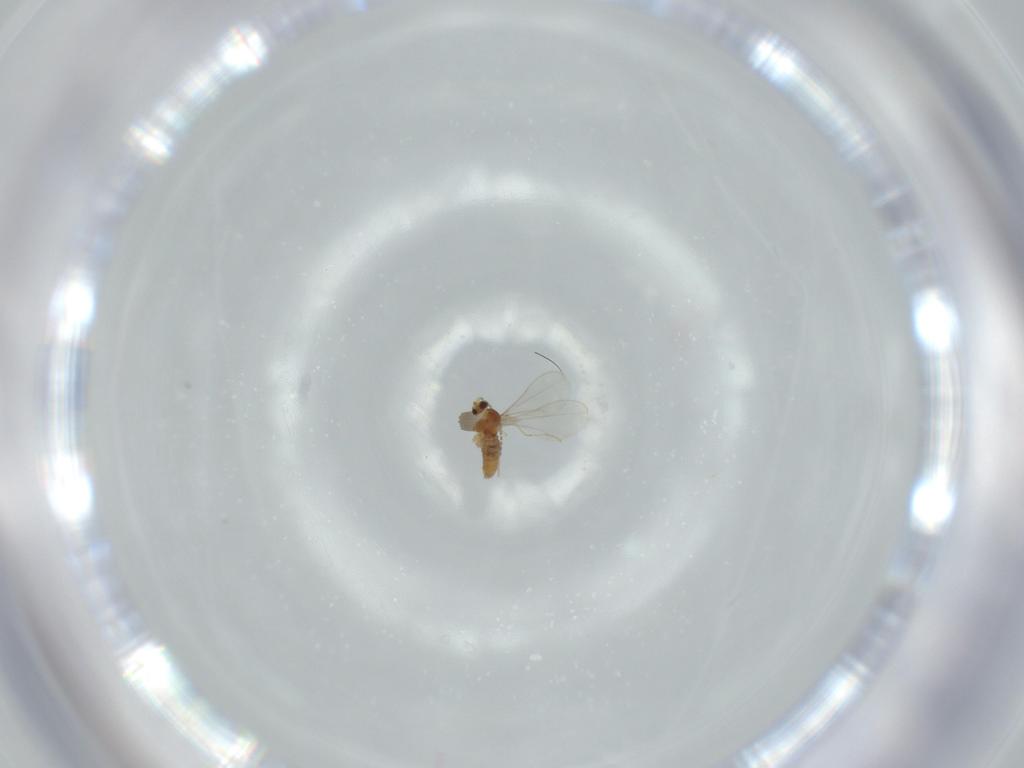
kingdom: Animalia
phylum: Arthropoda
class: Insecta
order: Diptera
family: Cecidomyiidae
